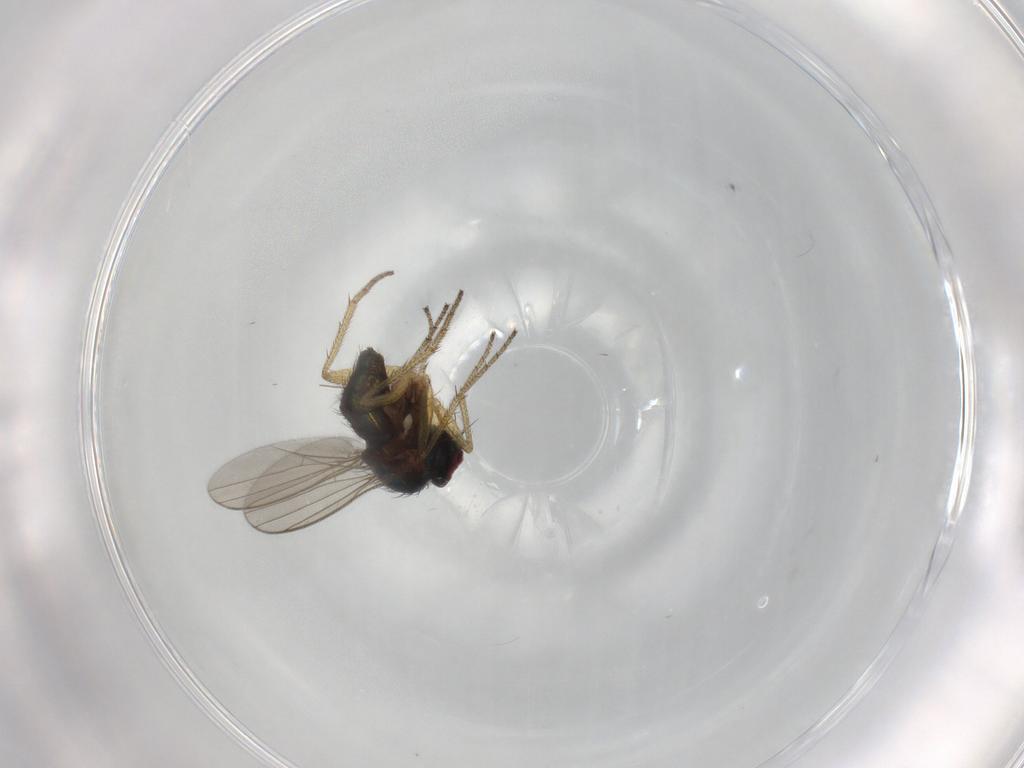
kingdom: Animalia
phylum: Arthropoda
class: Insecta
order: Diptera
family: Chironomidae
